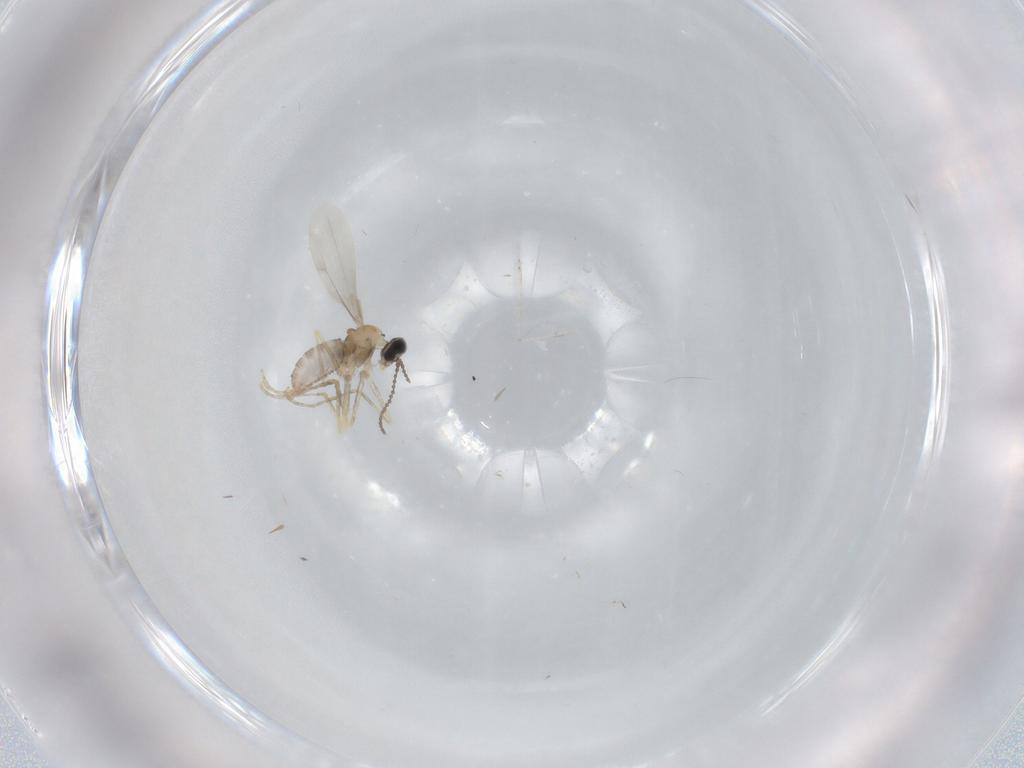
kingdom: Animalia
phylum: Arthropoda
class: Insecta
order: Diptera
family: Cecidomyiidae
